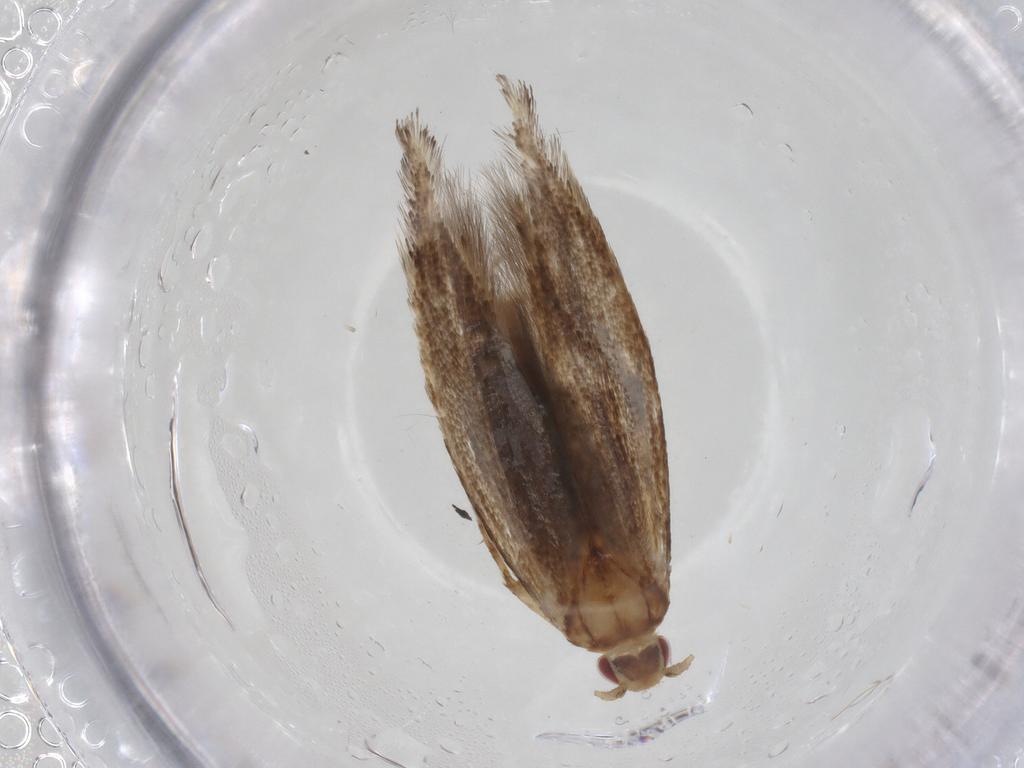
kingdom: Animalia
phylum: Arthropoda
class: Insecta
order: Lepidoptera
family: Cosmopterigidae
